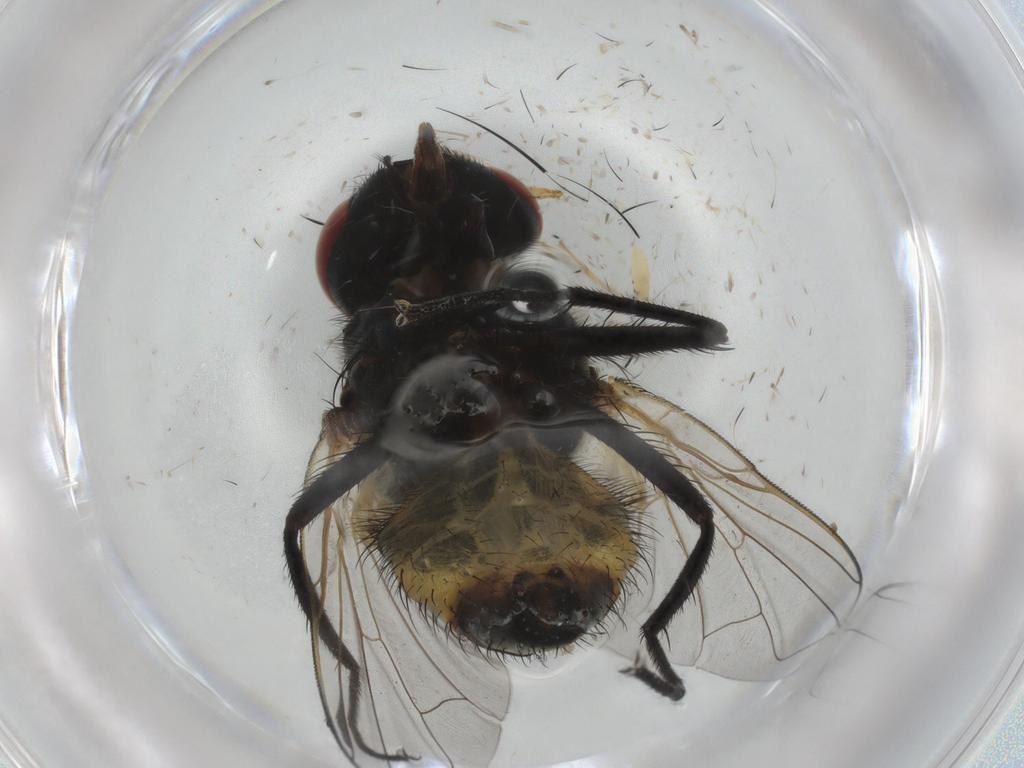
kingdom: Animalia
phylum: Arthropoda
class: Insecta
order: Diptera
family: Muscidae
